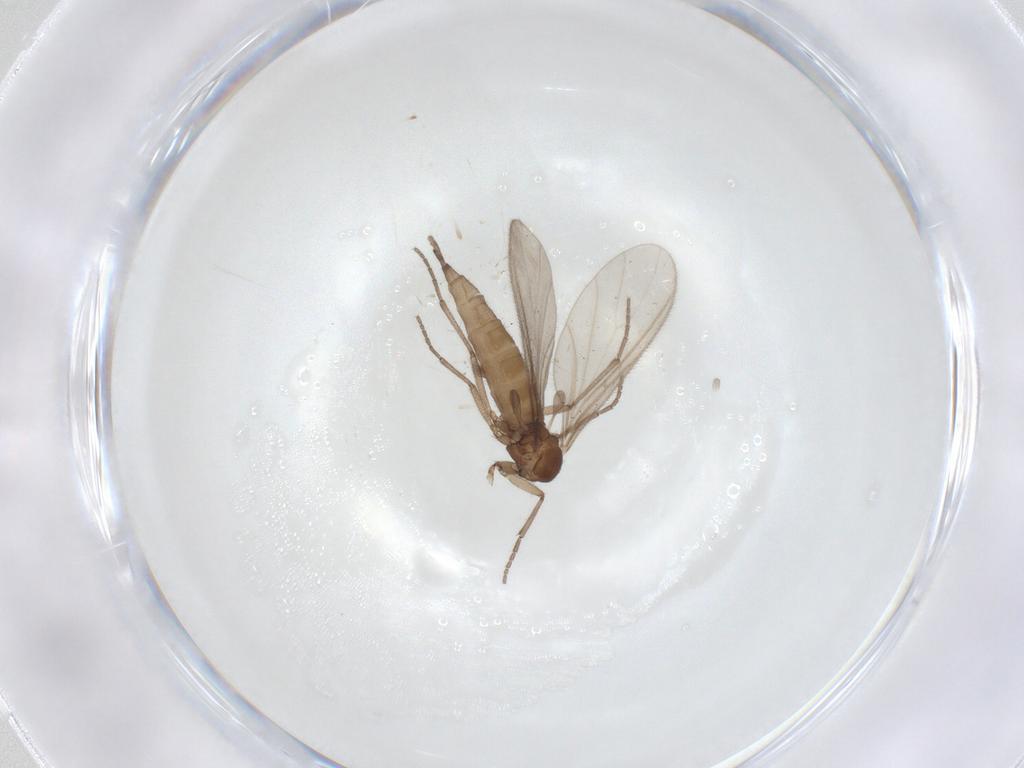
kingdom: Animalia
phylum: Arthropoda
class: Insecta
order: Diptera
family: Sciaridae
